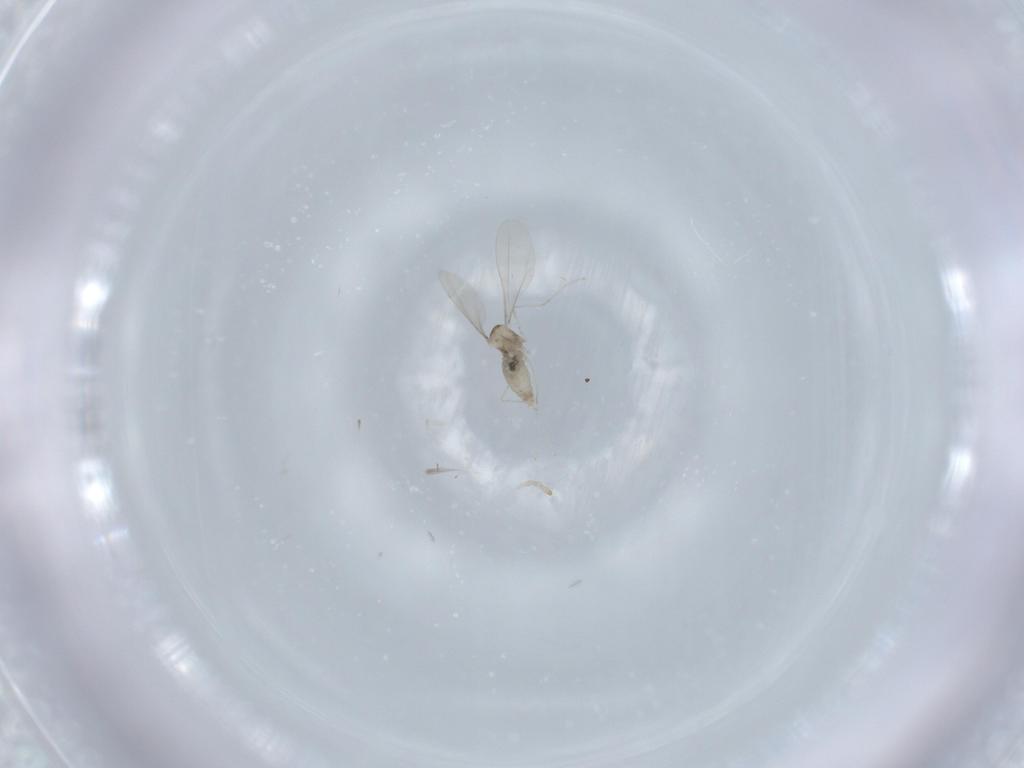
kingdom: Animalia
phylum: Arthropoda
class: Insecta
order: Diptera
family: Cecidomyiidae
